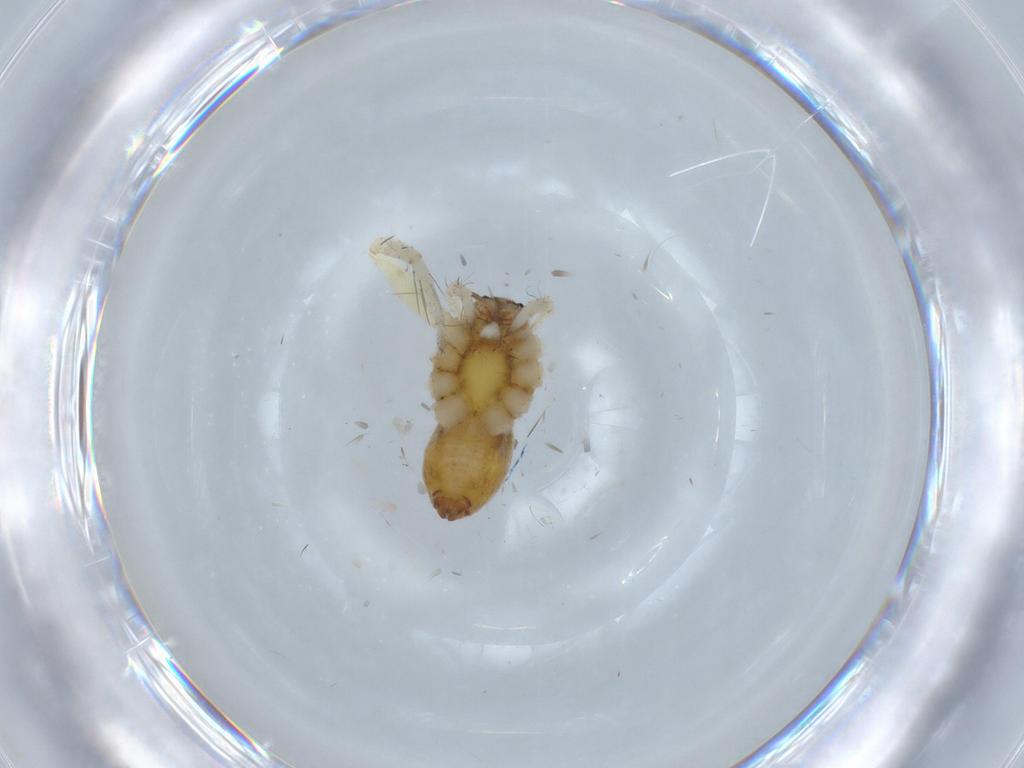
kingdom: Animalia
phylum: Arthropoda
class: Arachnida
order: Araneae
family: Pisauridae
